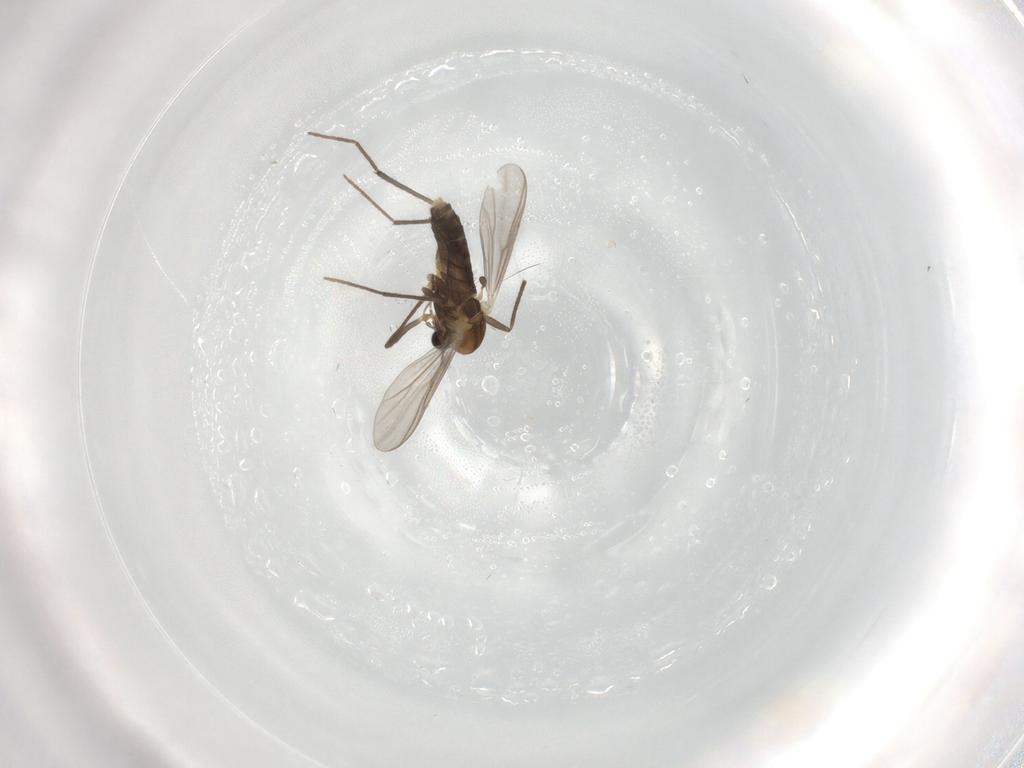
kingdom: Animalia
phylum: Arthropoda
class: Insecta
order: Diptera
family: Chironomidae
